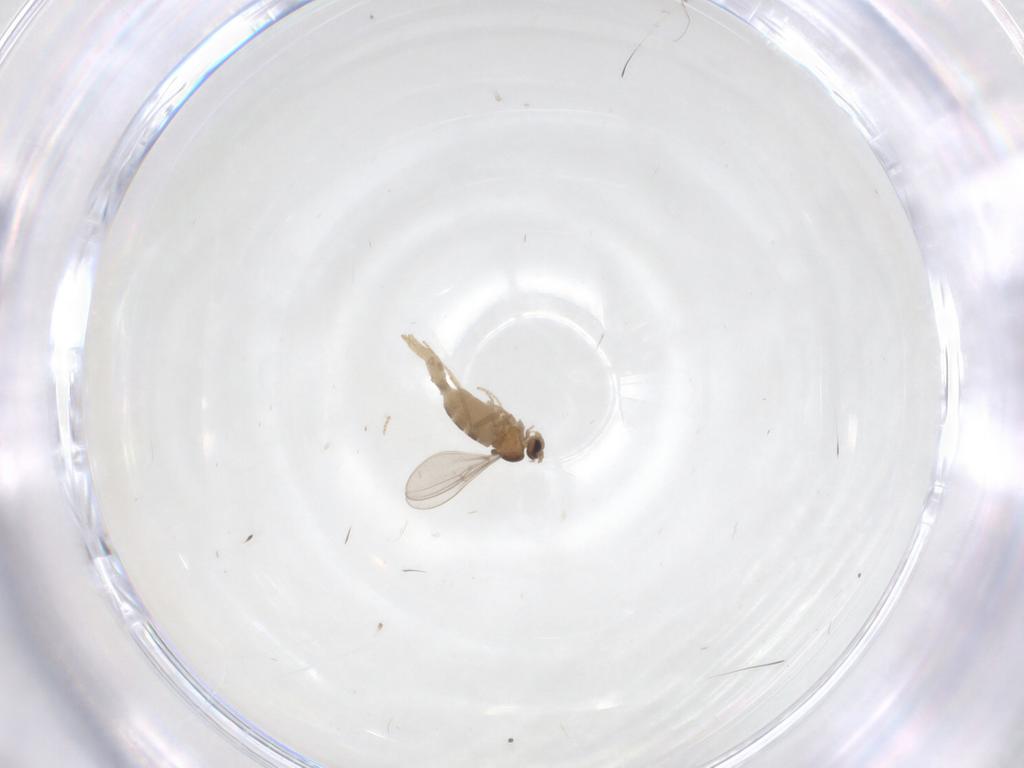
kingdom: Animalia
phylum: Arthropoda
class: Insecta
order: Diptera
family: Cecidomyiidae
